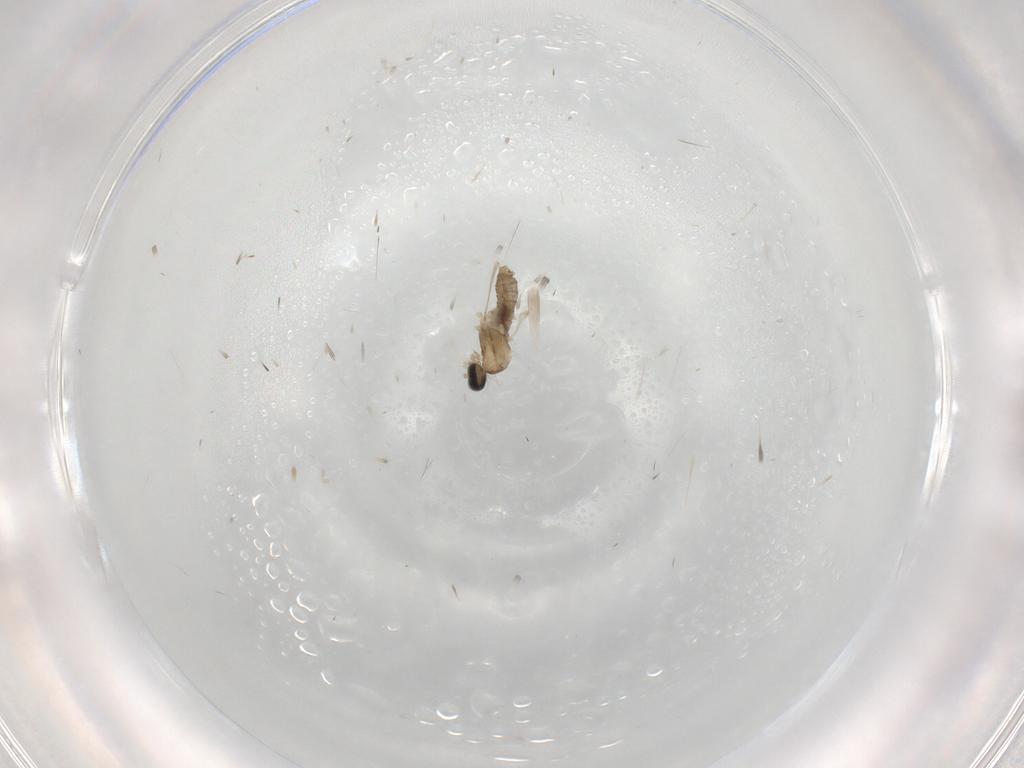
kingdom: Animalia
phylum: Arthropoda
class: Insecta
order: Diptera
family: Cecidomyiidae
